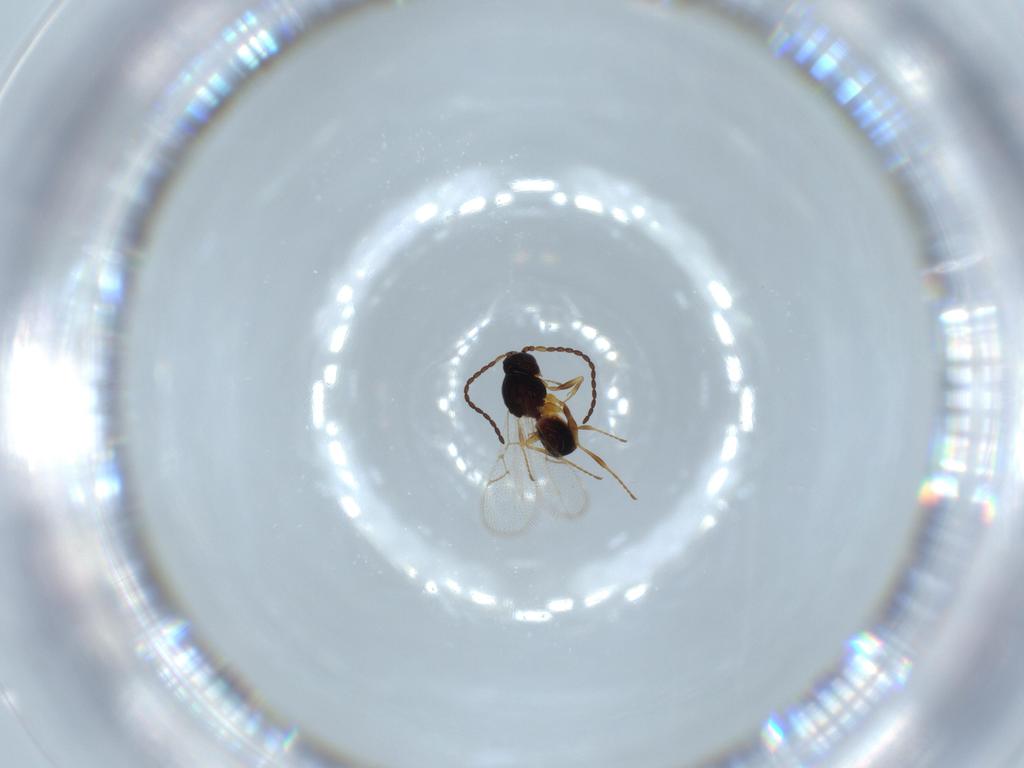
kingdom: Animalia
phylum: Arthropoda
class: Insecta
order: Hymenoptera
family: Cynipidae
